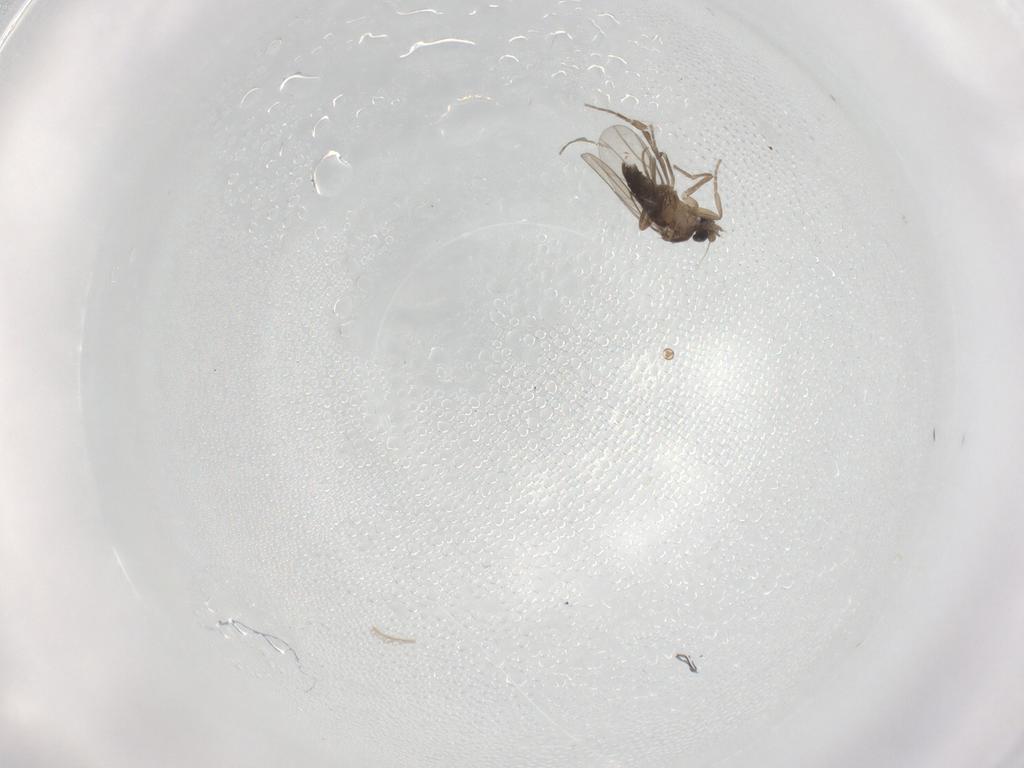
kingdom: Animalia
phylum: Arthropoda
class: Insecta
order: Diptera
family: Phoridae
